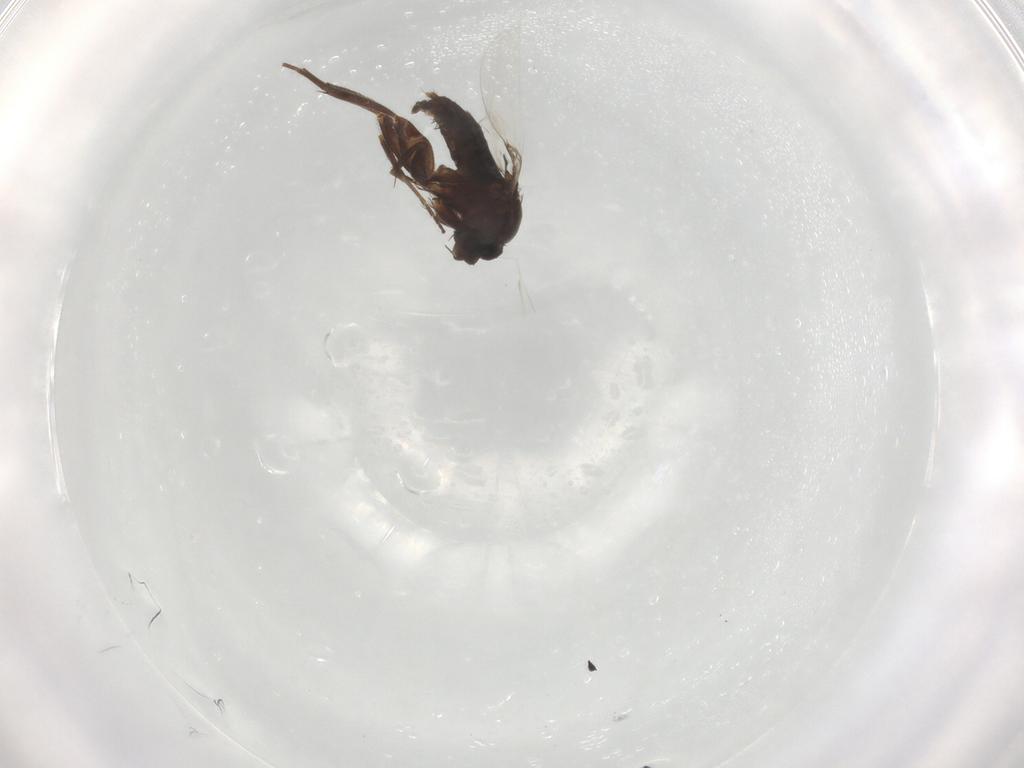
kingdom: Animalia
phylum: Arthropoda
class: Insecta
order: Diptera
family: Phoridae
